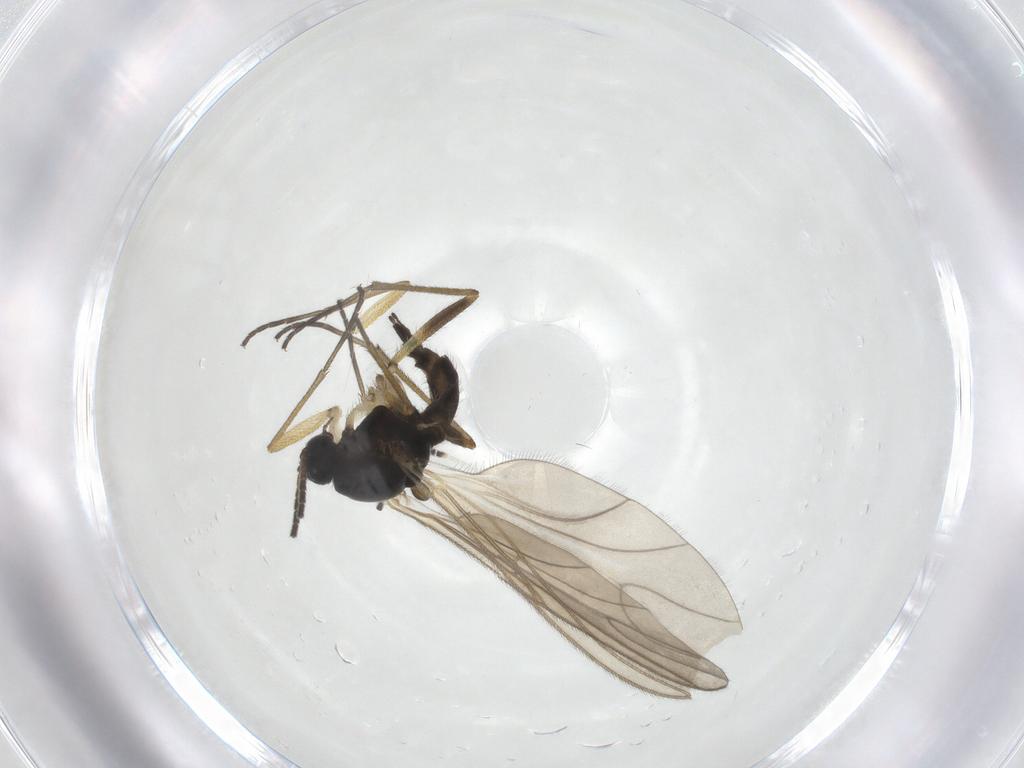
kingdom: Animalia
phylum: Arthropoda
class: Insecta
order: Diptera
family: Sciaridae
